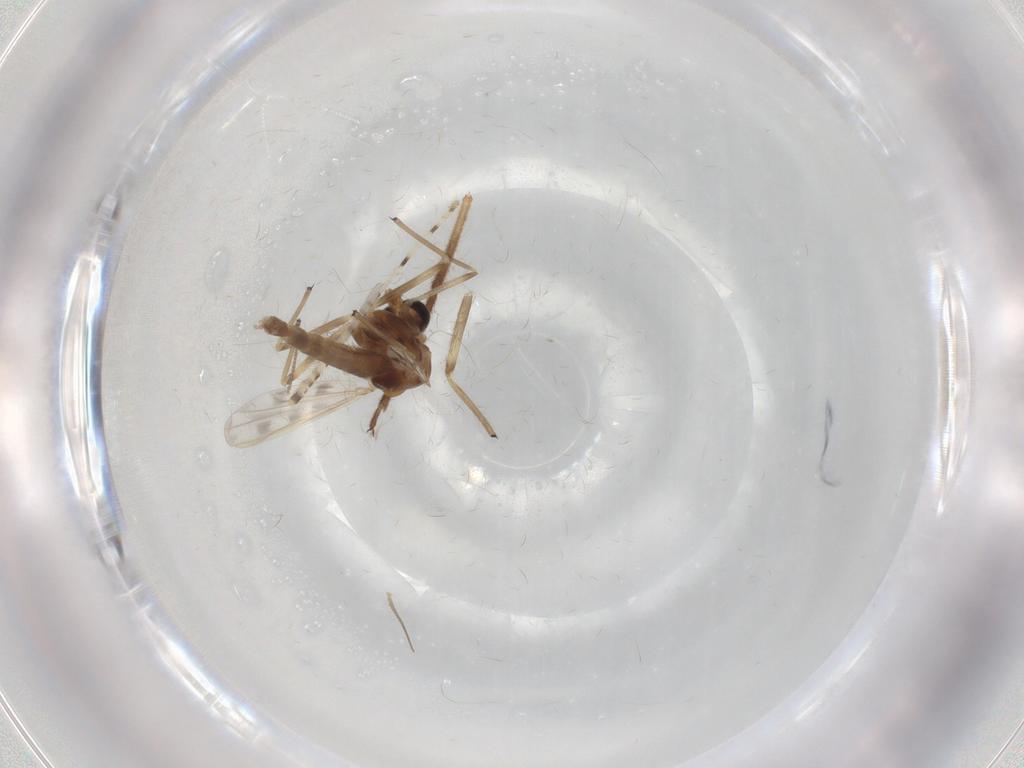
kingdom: Animalia
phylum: Arthropoda
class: Insecta
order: Diptera
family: Chironomidae
